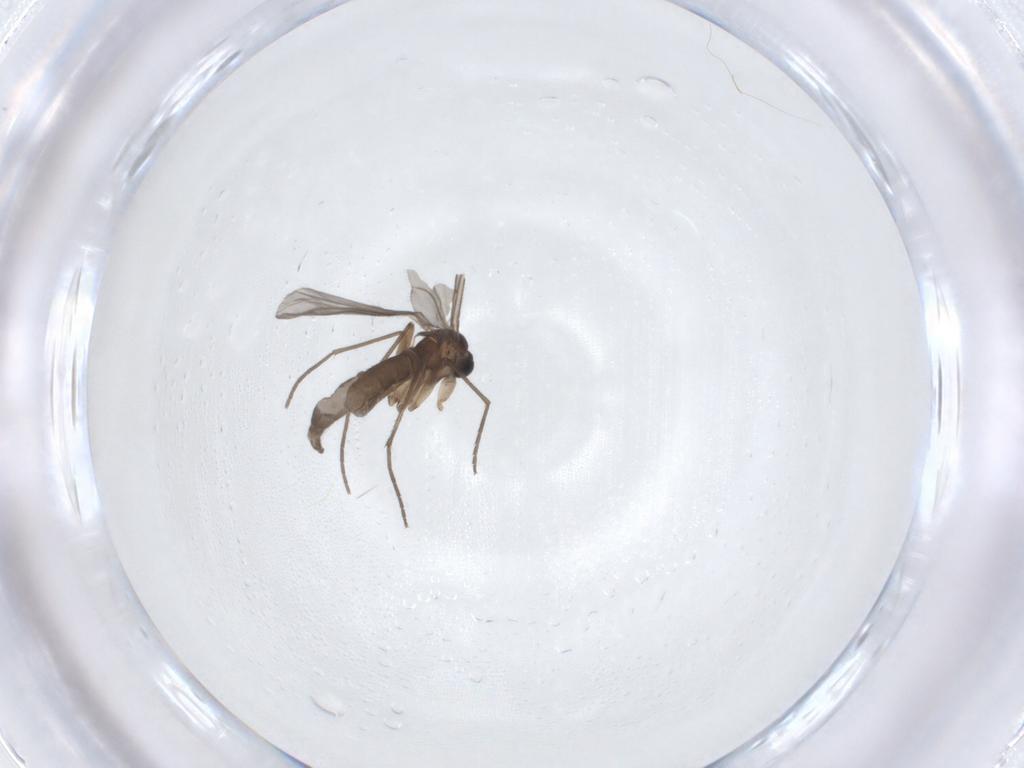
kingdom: Animalia
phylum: Arthropoda
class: Insecta
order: Diptera
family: Sciaridae
